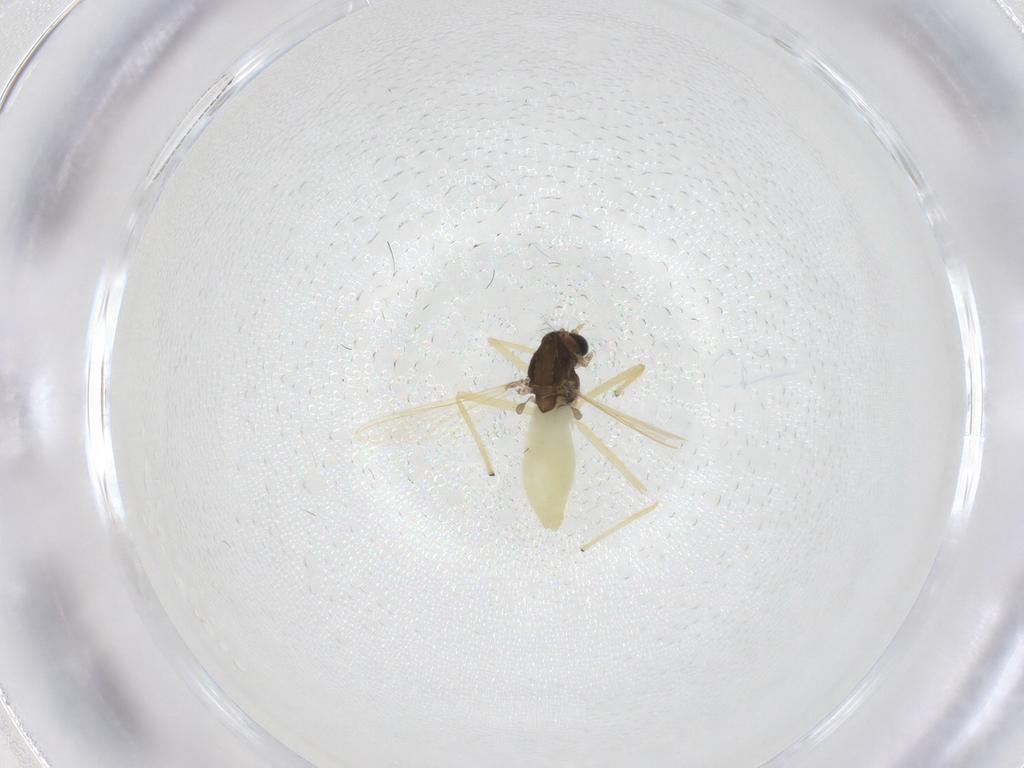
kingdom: Animalia
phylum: Arthropoda
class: Insecta
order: Diptera
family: Chironomidae
